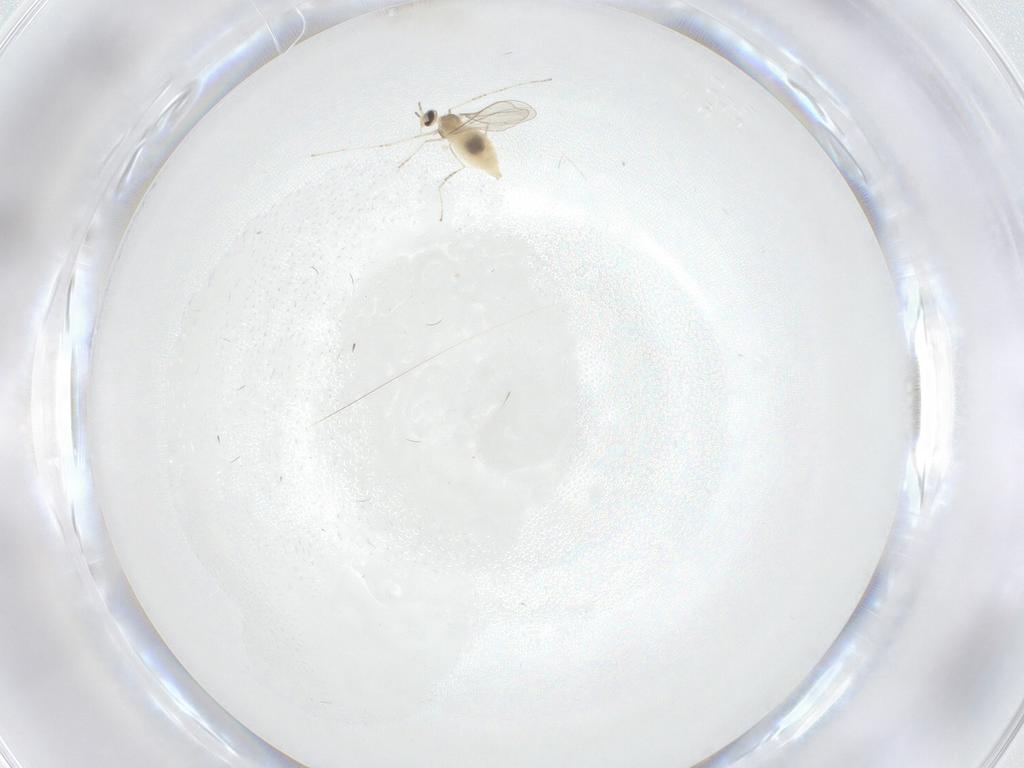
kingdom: Animalia
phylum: Arthropoda
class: Insecta
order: Diptera
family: Cecidomyiidae
